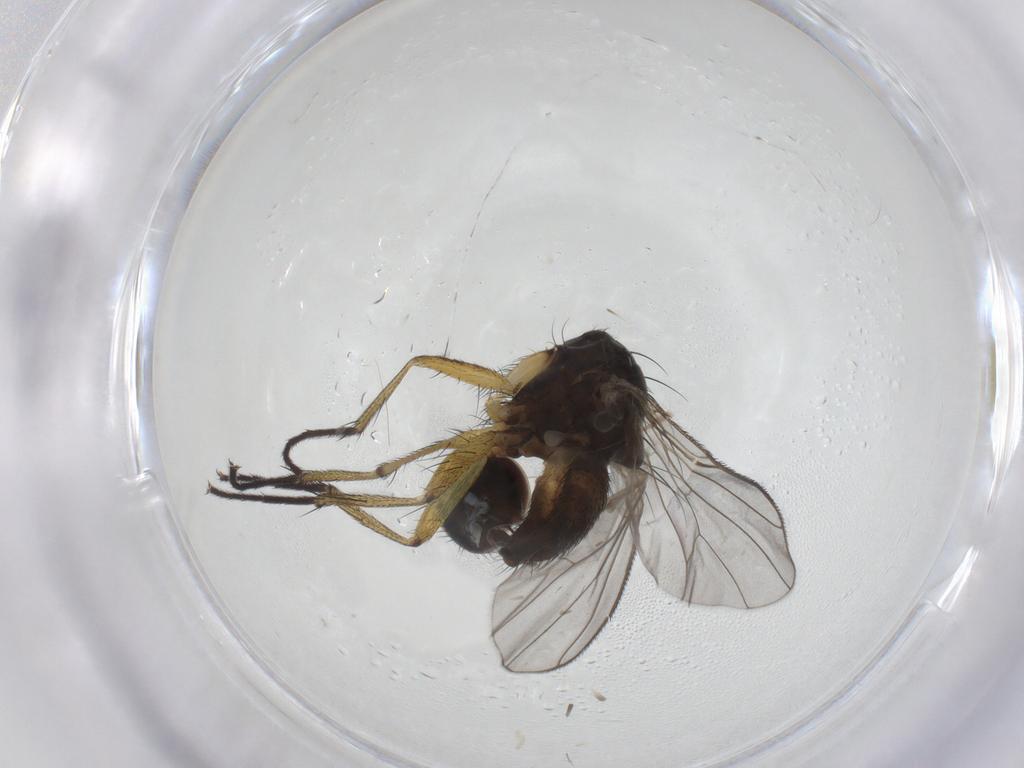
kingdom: Animalia
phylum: Arthropoda
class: Insecta
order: Diptera
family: Muscidae
